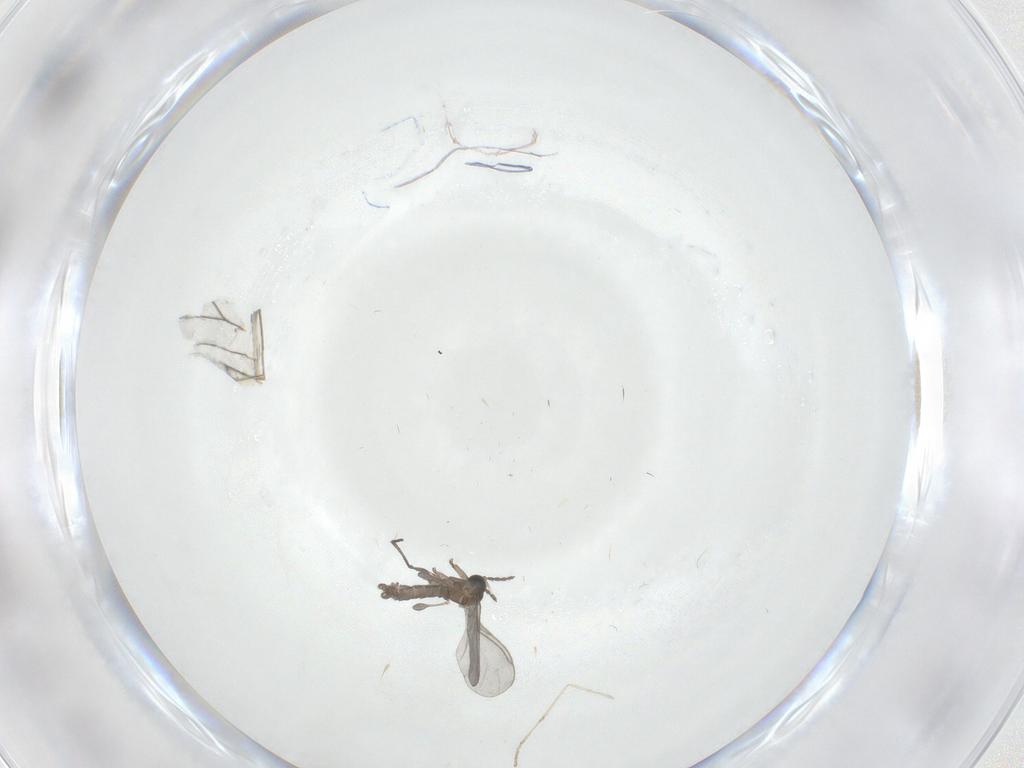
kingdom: Animalia
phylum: Arthropoda
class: Insecta
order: Diptera
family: Sciaridae
